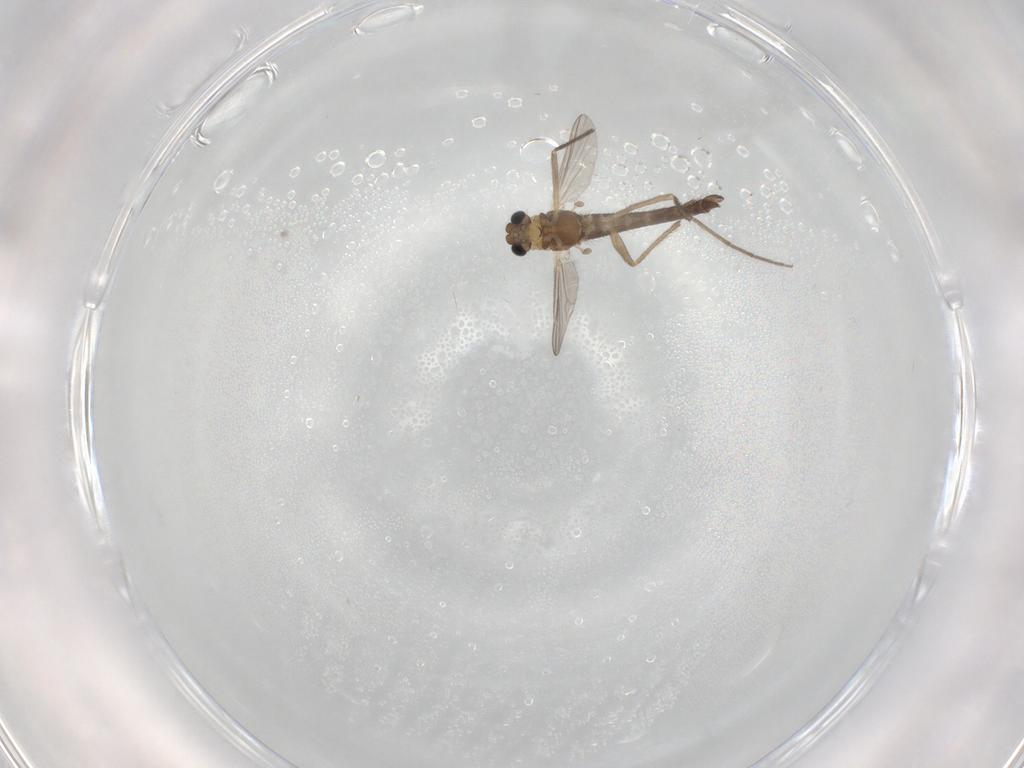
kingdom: Animalia
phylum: Arthropoda
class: Insecta
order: Diptera
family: Chironomidae
